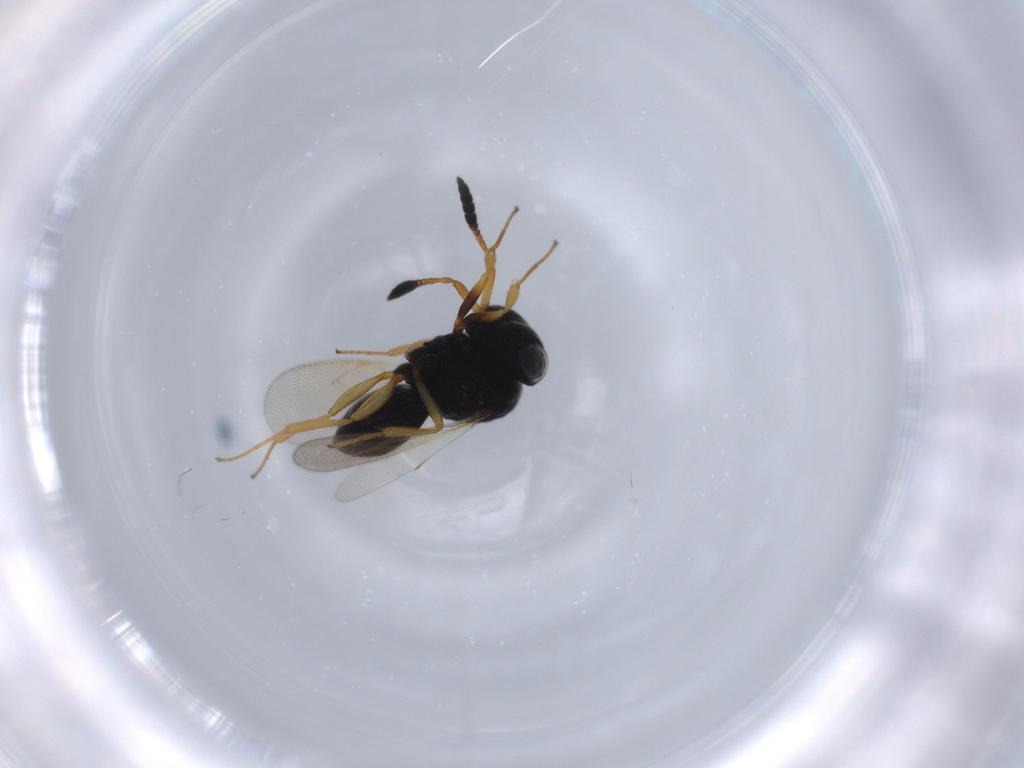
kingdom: Animalia
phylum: Arthropoda
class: Insecta
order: Hymenoptera
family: Scelionidae
